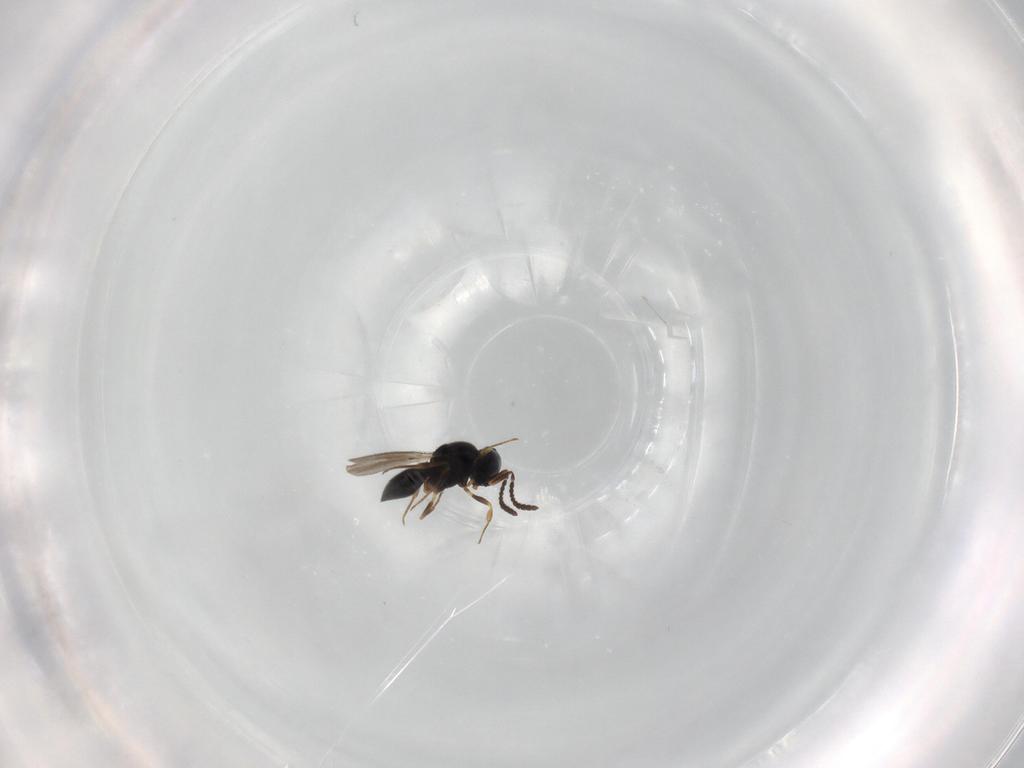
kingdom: Animalia
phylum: Arthropoda
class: Insecta
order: Hymenoptera
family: Scelionidae
